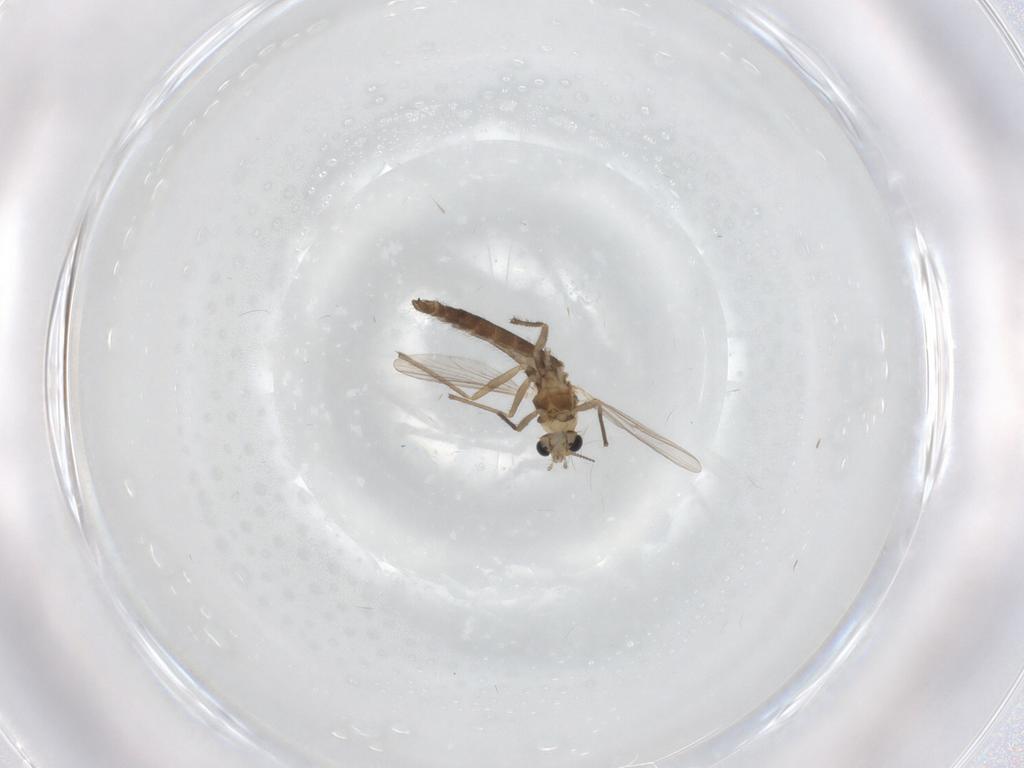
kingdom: Animalia
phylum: Arthropoda
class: Insecta
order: Diptera
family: Chironomidae
